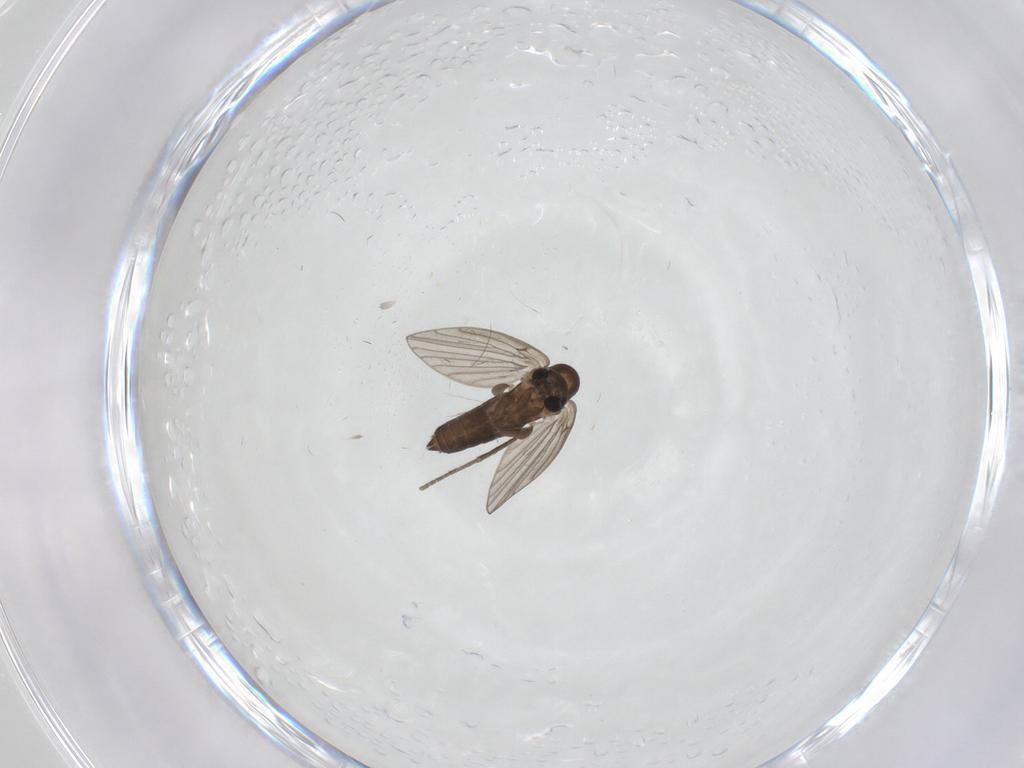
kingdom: Animalia
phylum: Arthropoda
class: Insecta
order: Diptera
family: Psychodidae
